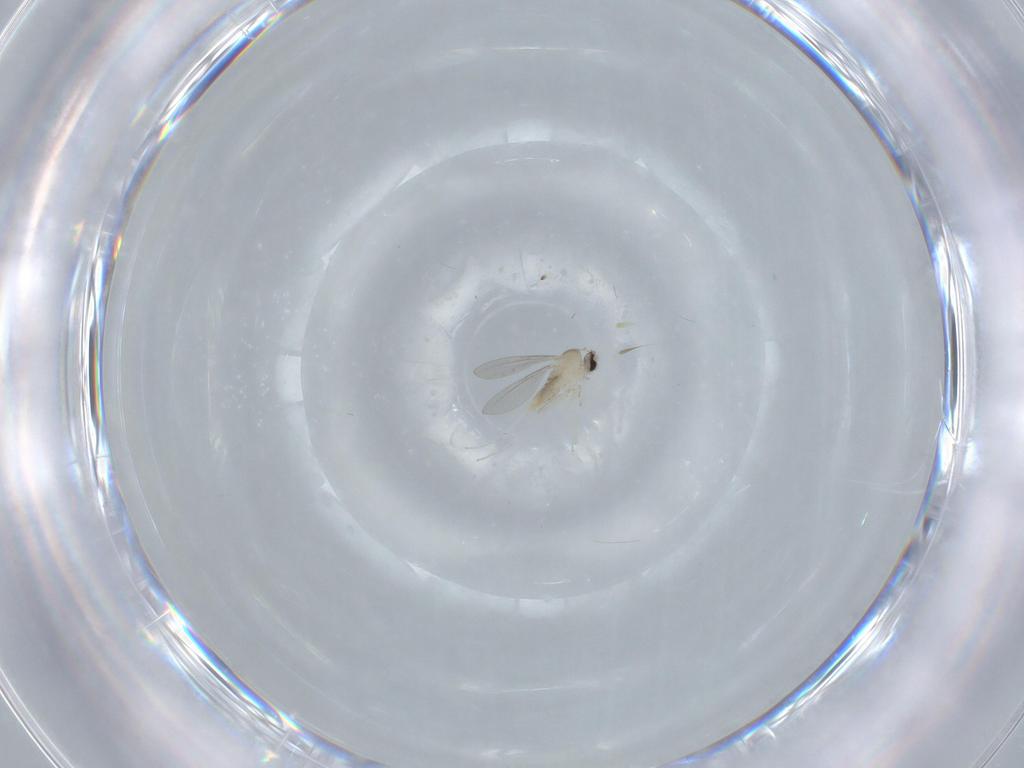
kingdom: Animalia
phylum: Arthropoda
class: Insecta
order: Diptera
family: Cecidomyiidae
